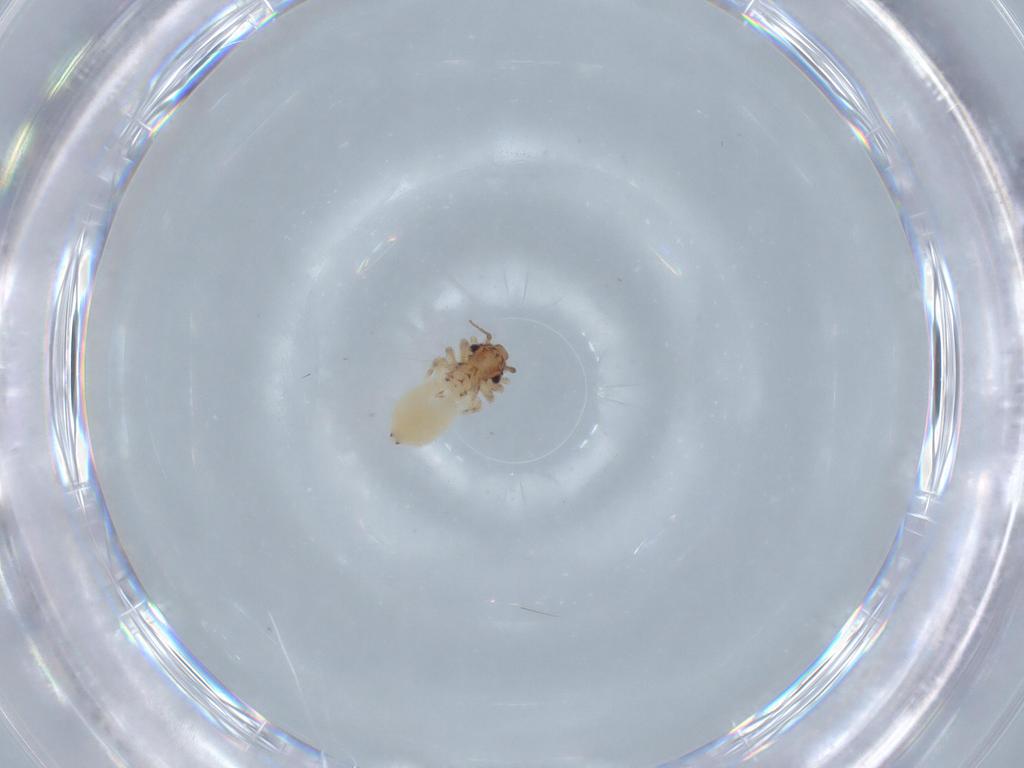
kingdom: Animalia
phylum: Arthropoda
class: Insecta
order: Psocodea
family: Lepidopsocidae
